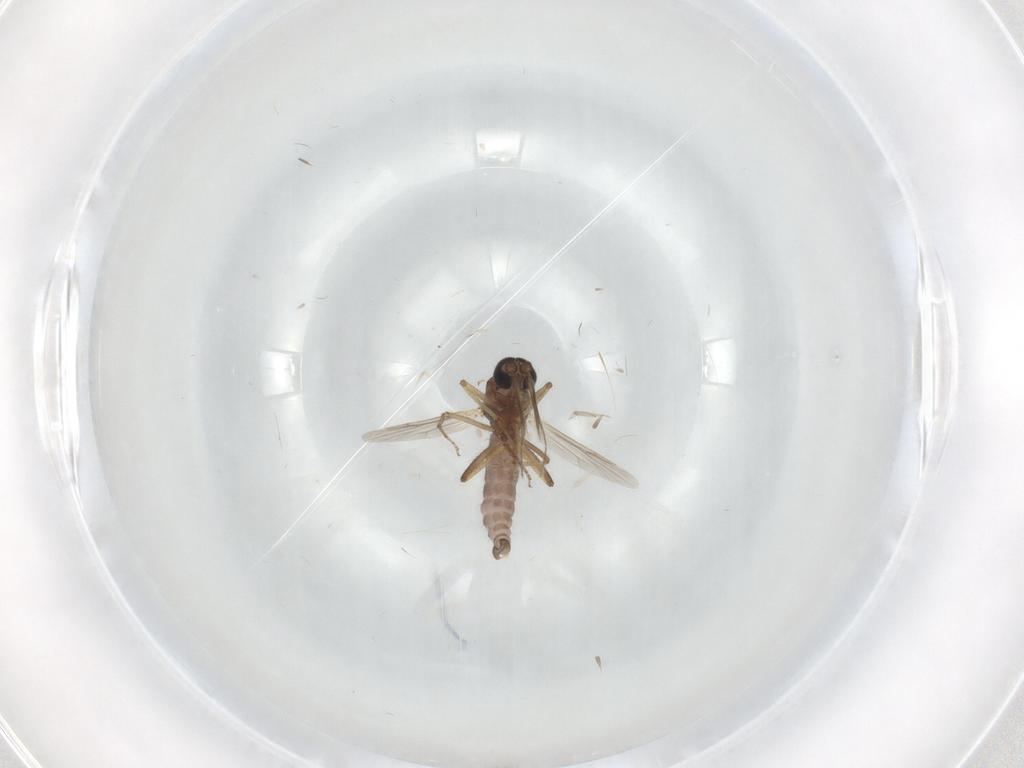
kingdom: Animalia
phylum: Arthropoda
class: Insecta
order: Diptera
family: Ceratopogonidae
